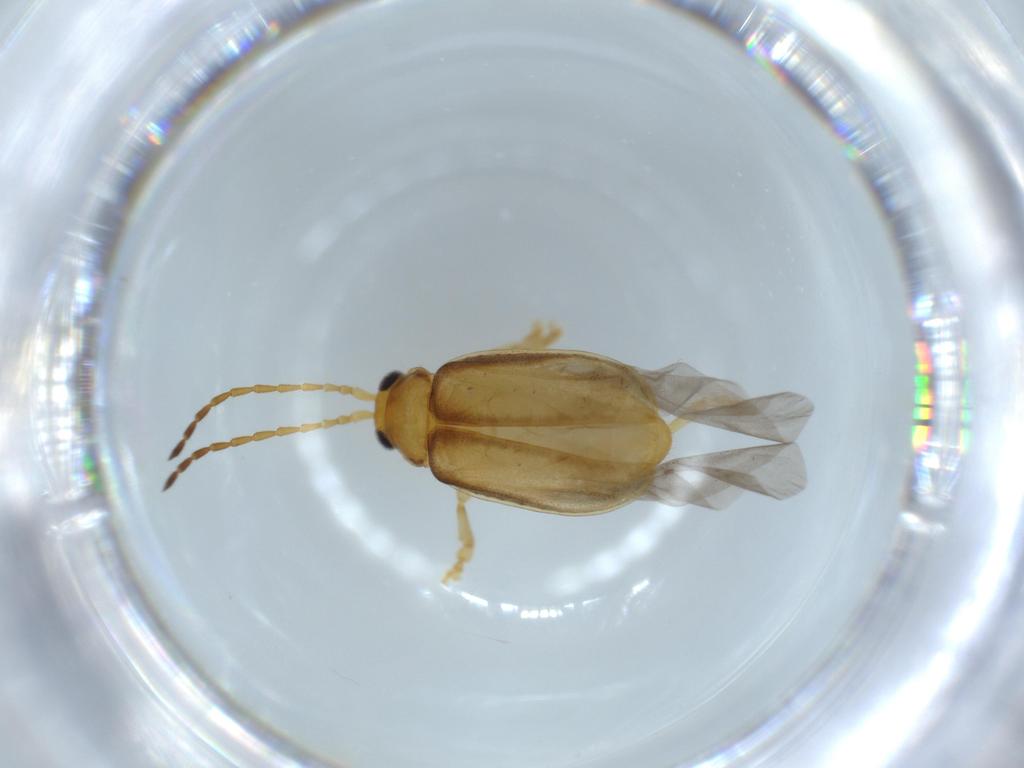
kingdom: Animalia
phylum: Arthropoda
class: Insecta
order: Coleoptera
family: Chrysomelidae
